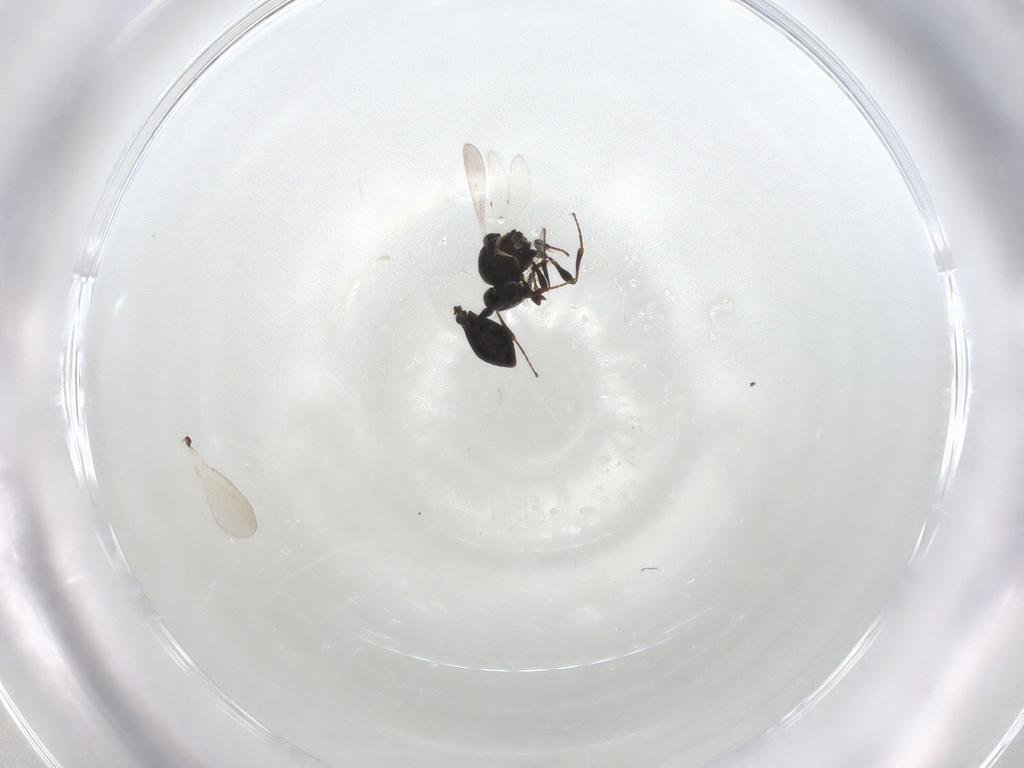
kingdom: Animalia
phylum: Arthropoda
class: Insecta
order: Hymenoptera
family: Platygastridae
